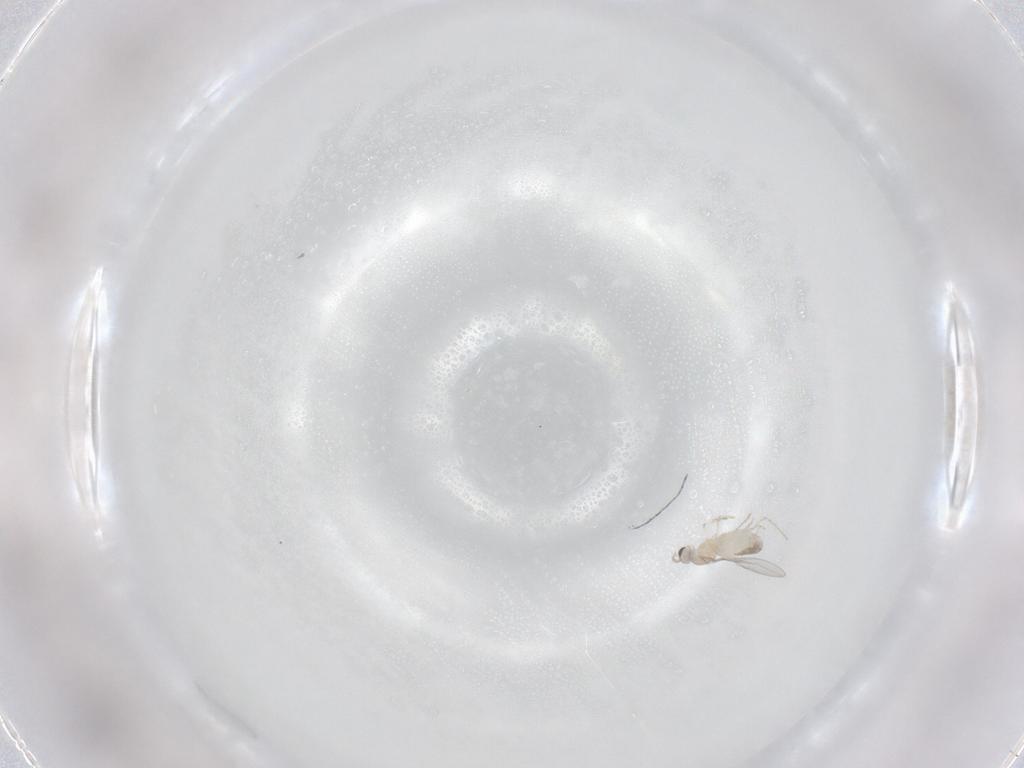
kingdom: Animalia
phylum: Arthropoda
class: Insecta
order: Diptera
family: Cecidomyiidae
